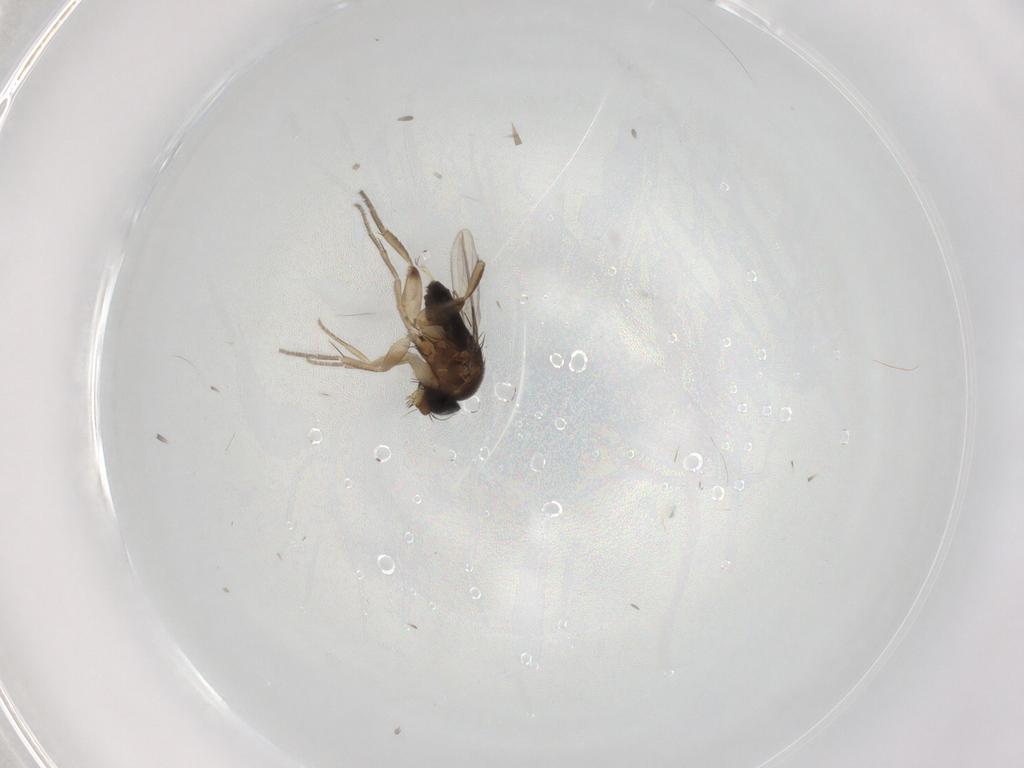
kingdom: Animalia
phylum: Arthropoda
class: Insecta
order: Diptera
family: Phoridae
